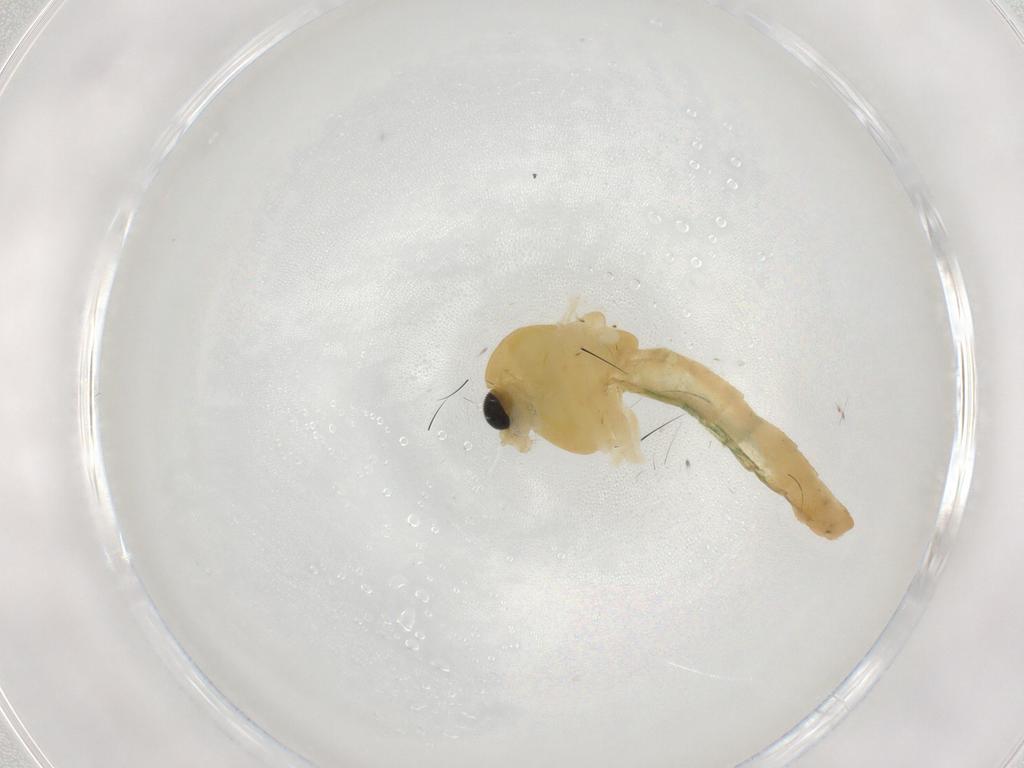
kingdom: Animalia
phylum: Arthropoda
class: Insecta
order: Diptera
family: Chironomidae
